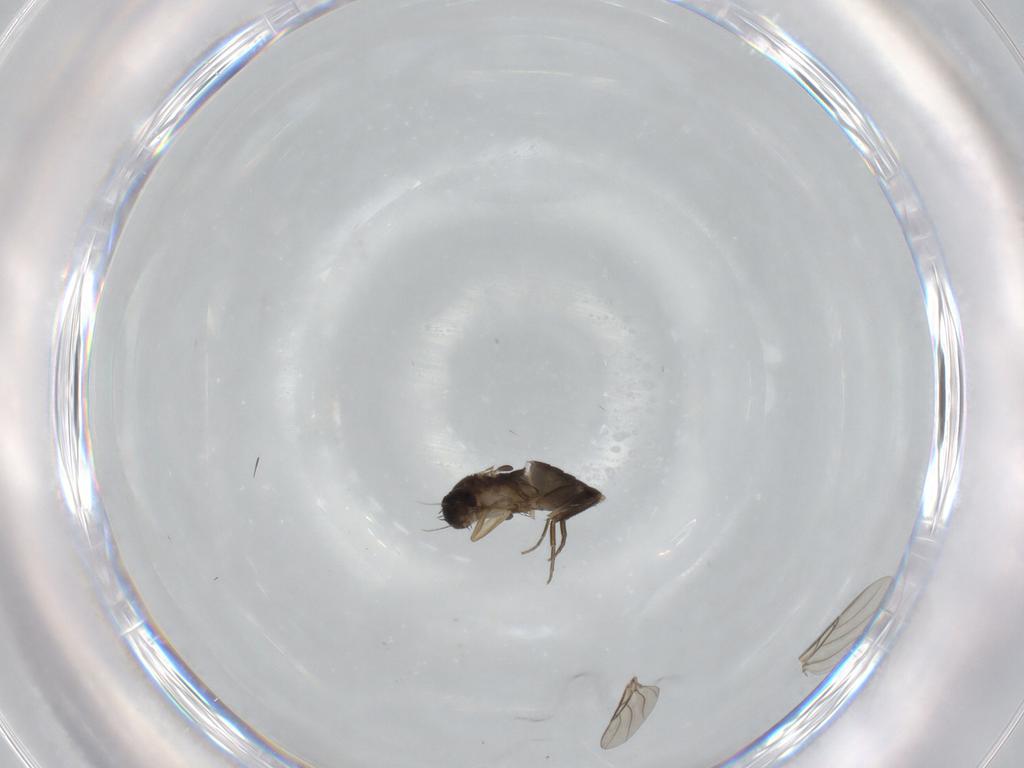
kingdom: Animalia
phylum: Arthropoda
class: Insecta
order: Diptera
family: Phoridae
